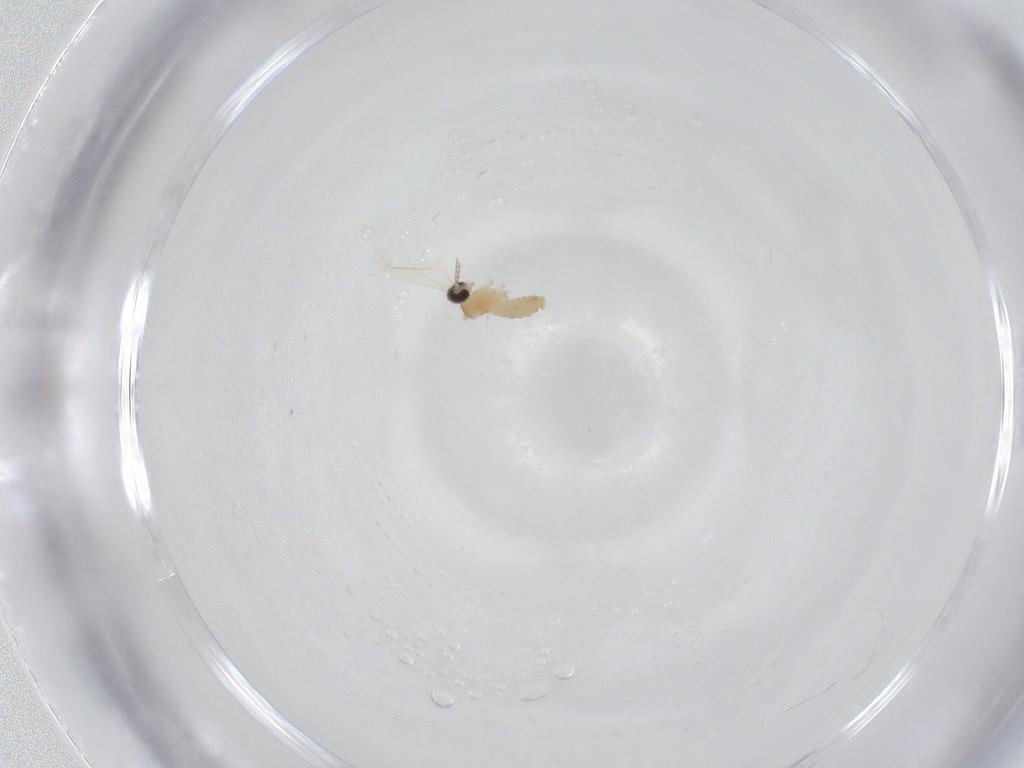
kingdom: Animalia
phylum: Arthropoda
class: Insecta
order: Diptera
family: Cecidomyiidae
